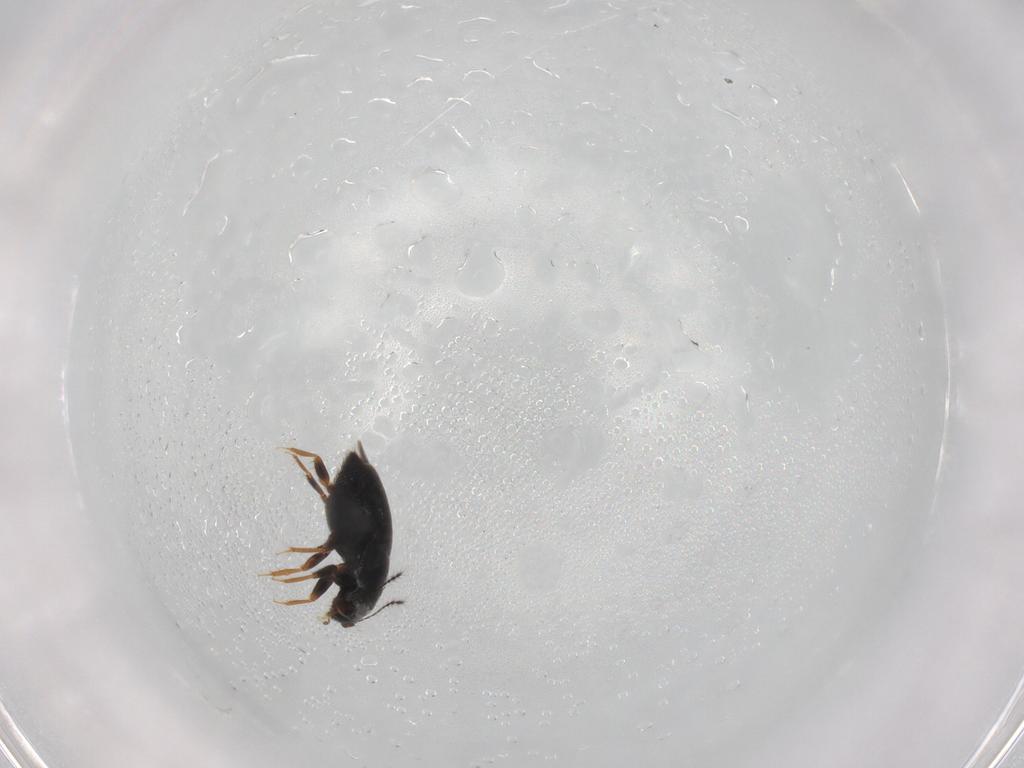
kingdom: Animalia
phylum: Arthropoda
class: Insecta
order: Coleoptera
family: Ptiliidae
